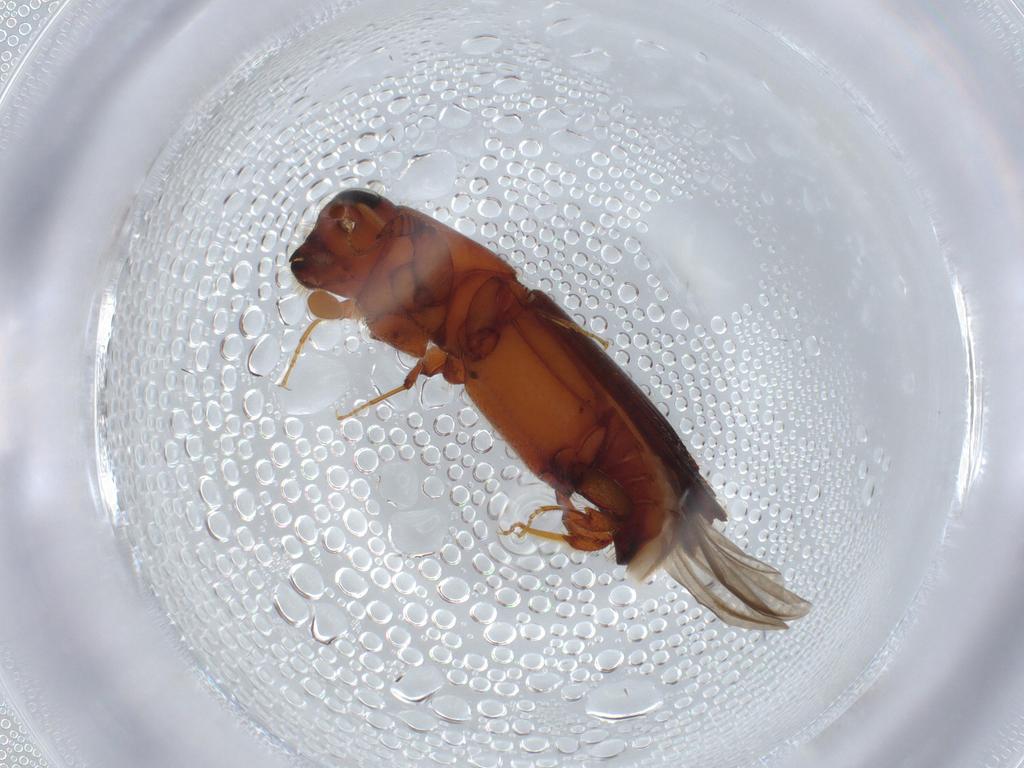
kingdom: Animalia
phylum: Arthropoda
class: Insecta
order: Coleoptera
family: Curculionidae
